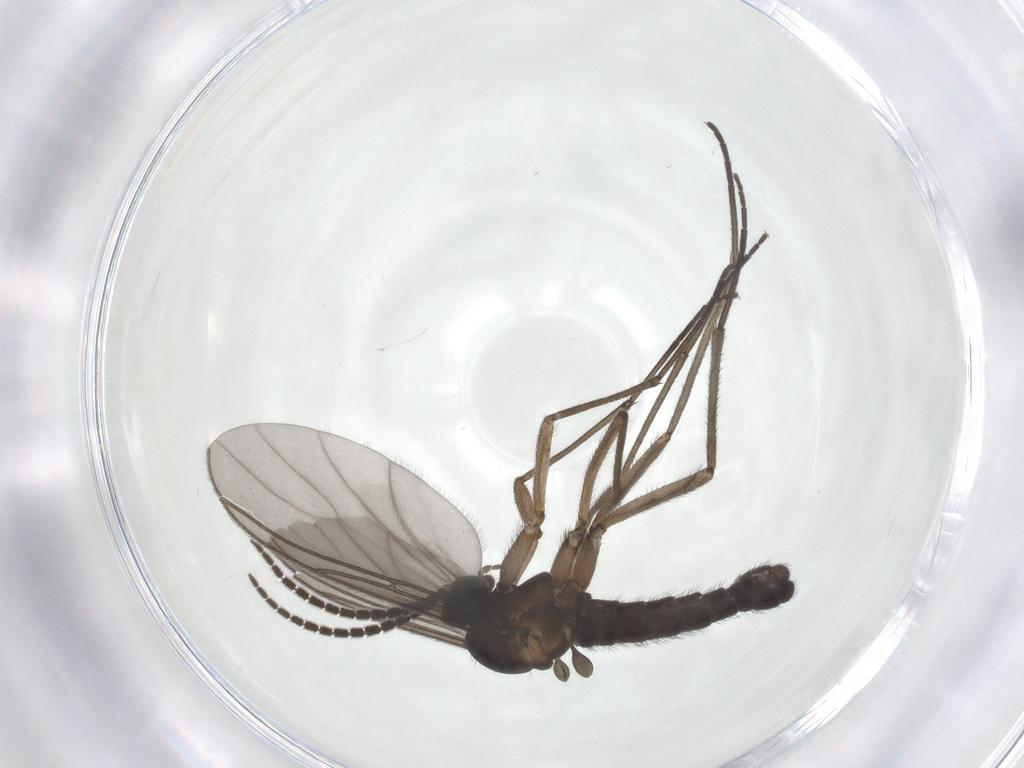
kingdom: Animalia
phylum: Arthropoda
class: Insecta
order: Diptera
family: Sciaridae
